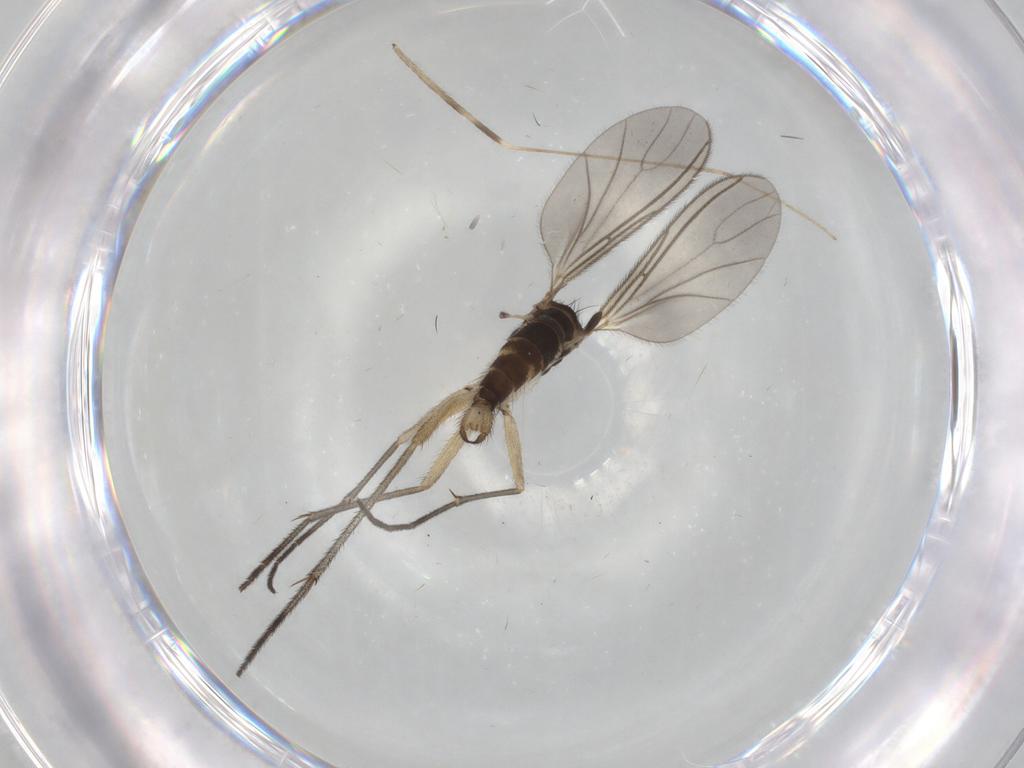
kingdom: Animalia
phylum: Arthropoda
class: Insecta
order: Diptera
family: Sciaridae
